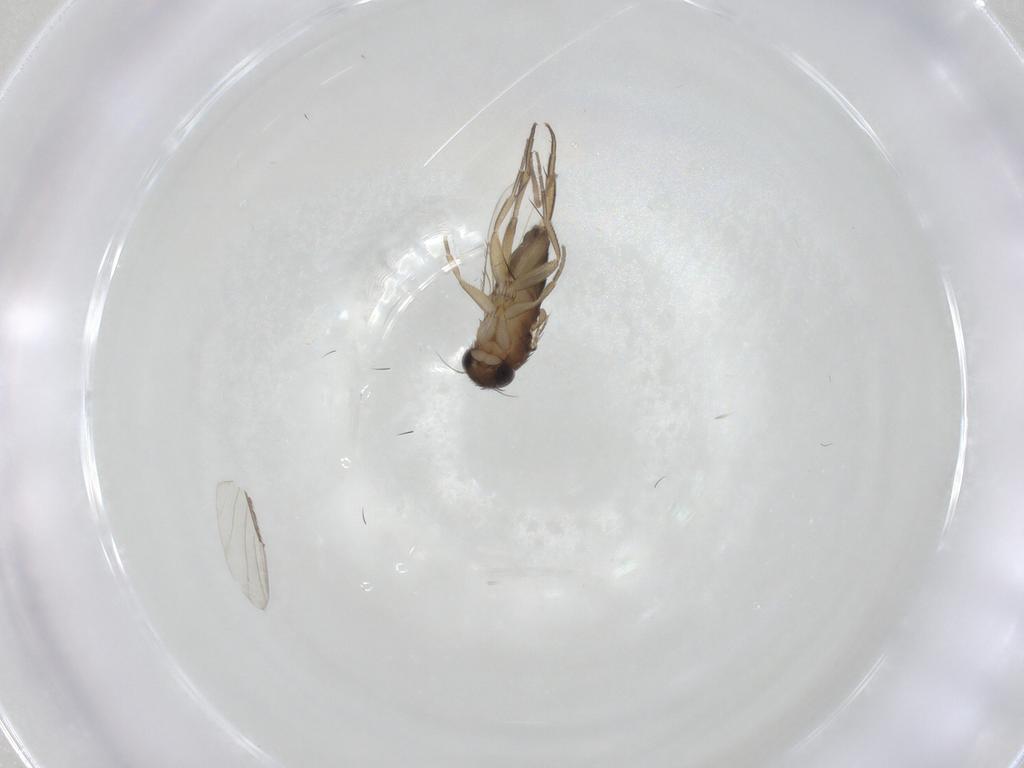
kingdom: Animalia
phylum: Arthropoda
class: Insecta
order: Diptera
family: Phoridae
